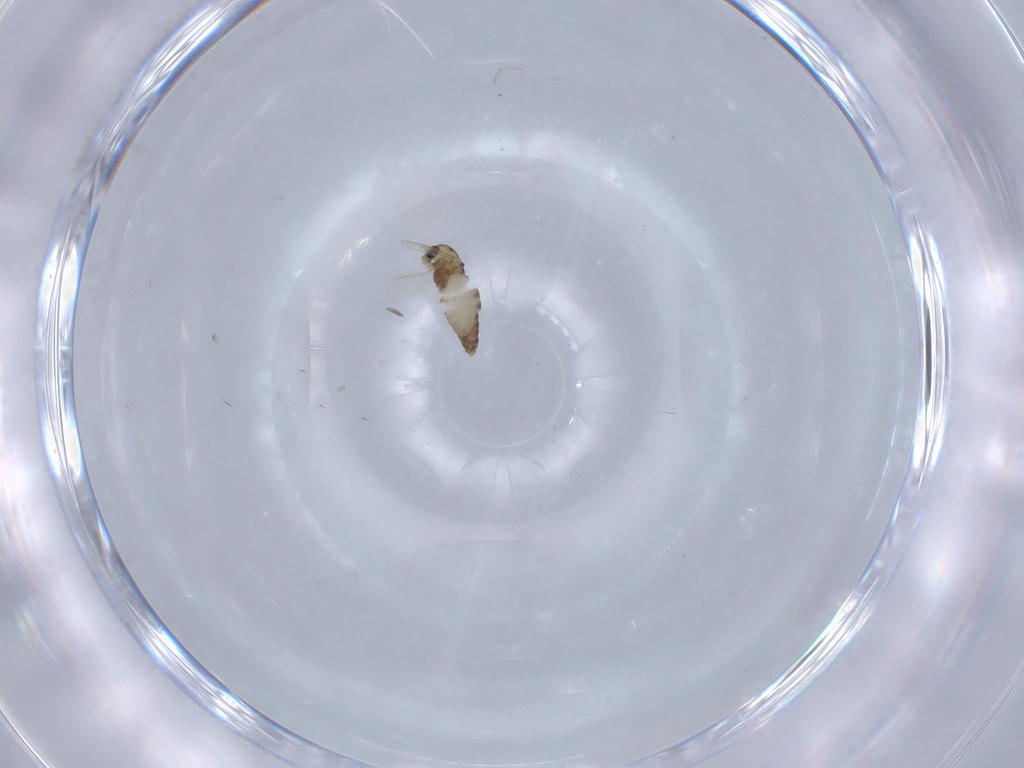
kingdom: Animalia
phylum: Arthropoda
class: Insecta
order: Diptera
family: Chironomidae
